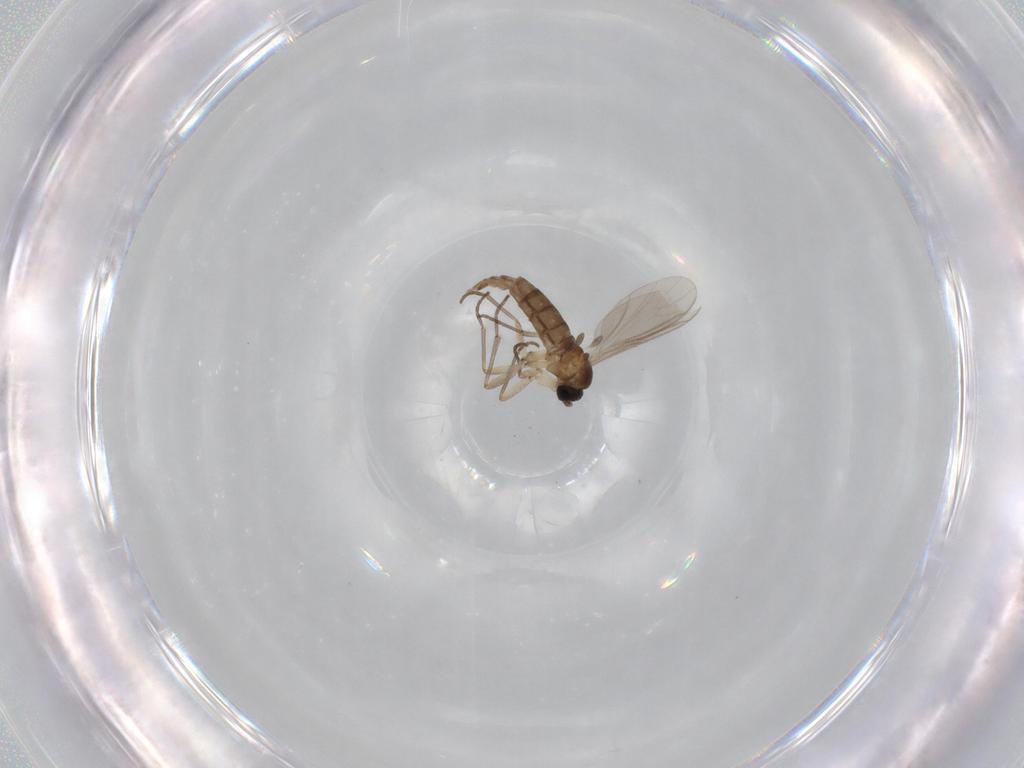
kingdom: Animalia
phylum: Arthropoda
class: Insecta
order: Diptera
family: Sciaridae
